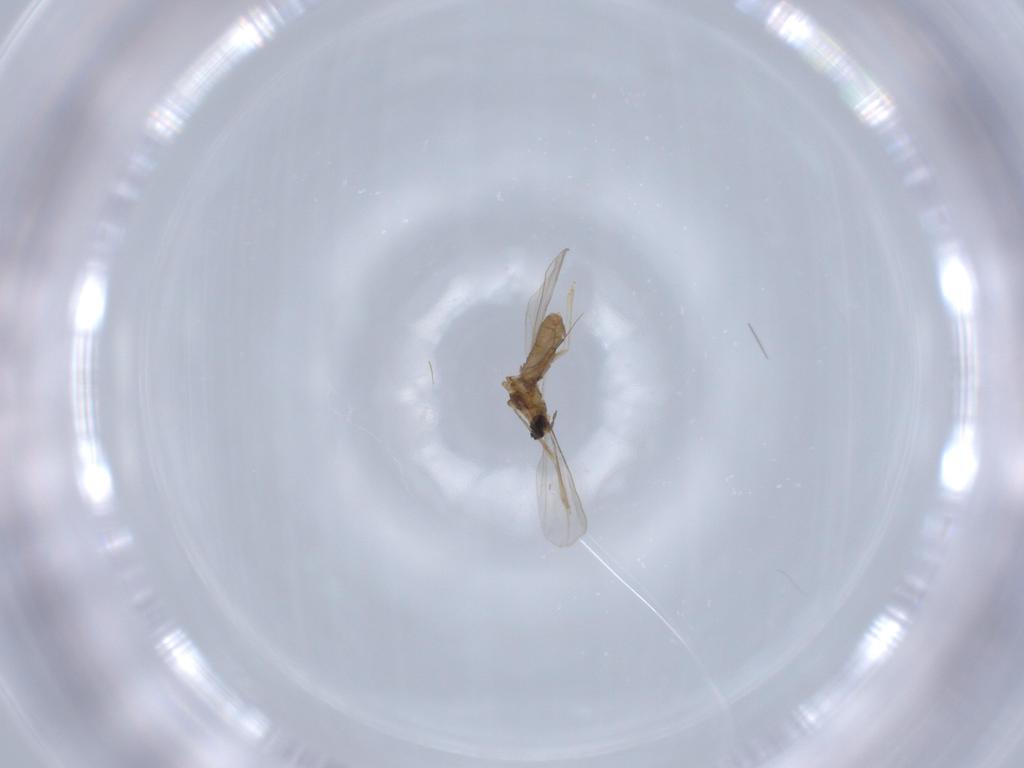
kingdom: Animalia
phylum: Arthropoda
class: Insecta
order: Diptera
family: Cecidomyiidae
